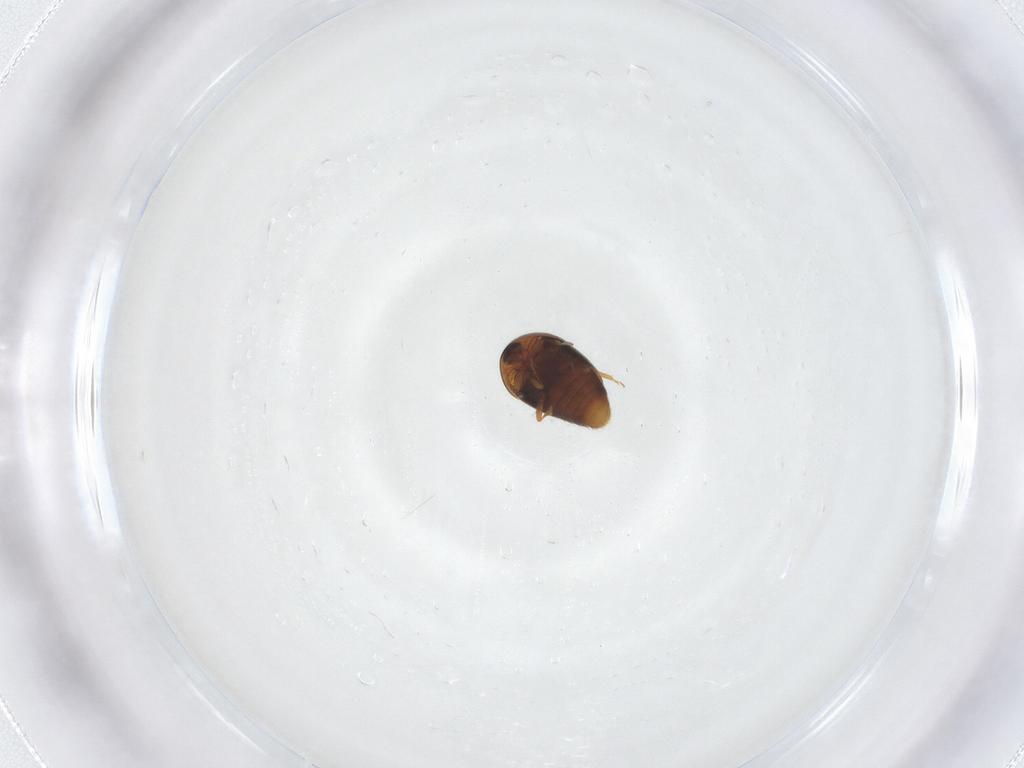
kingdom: Animalia
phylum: Arthropoda
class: Insecta
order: Coleoptera
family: Corylophidae
